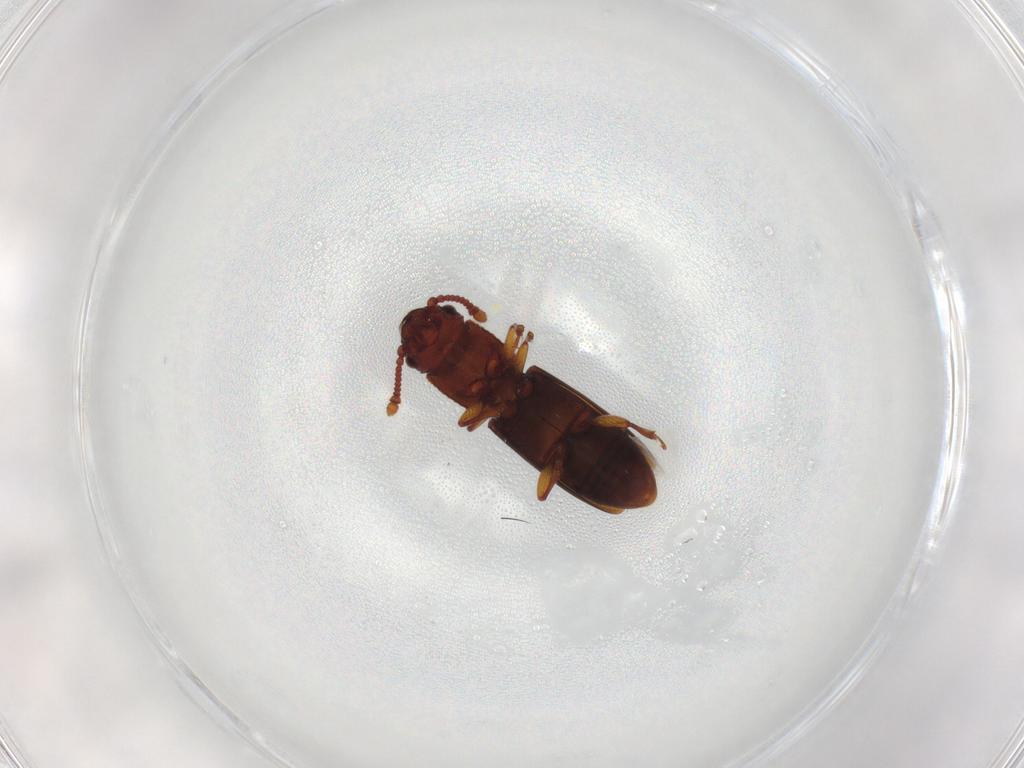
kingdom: Animalia
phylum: Arthropoda
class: Insecta
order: Coleoptera
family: Monotomidae
